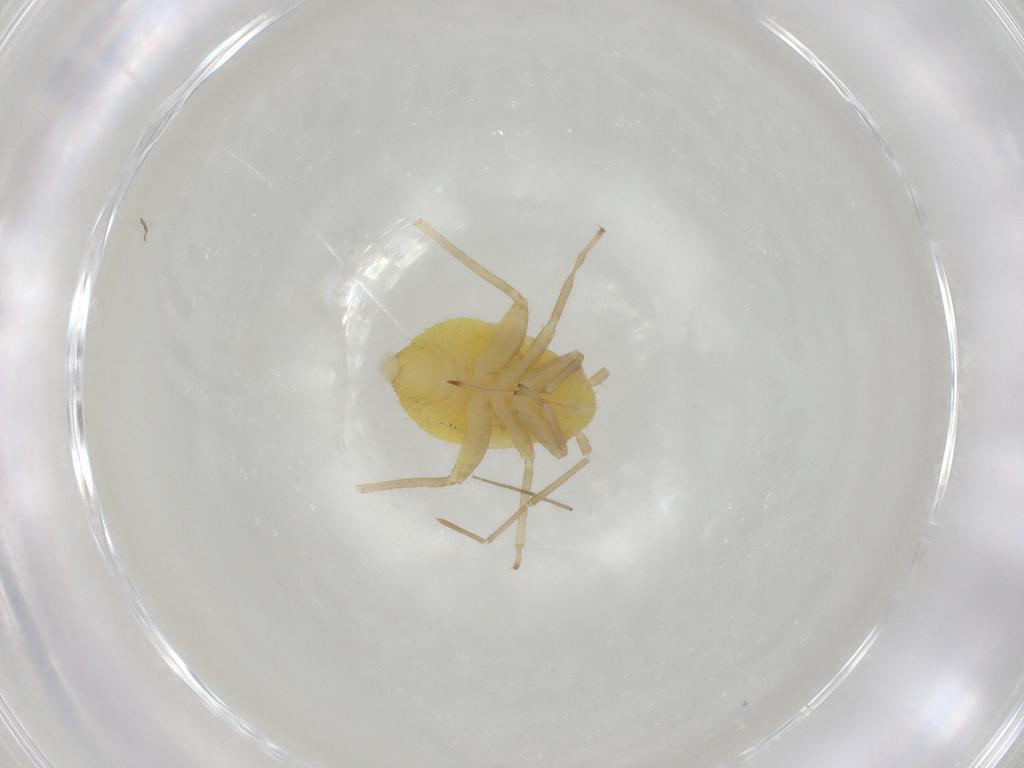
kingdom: Animalia
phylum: Arthropoda
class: Insecta
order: Hemiptera
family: Miridae
